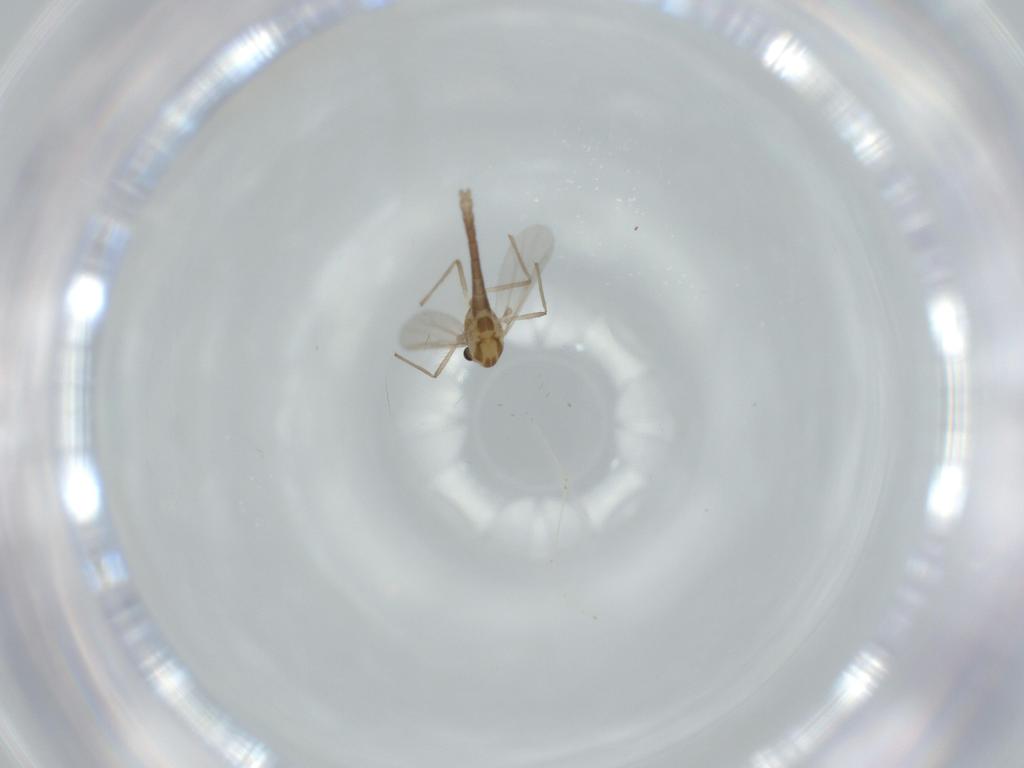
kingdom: Animalia
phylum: Arthropoda
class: Insecta
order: Diptera
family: Chironomidae
